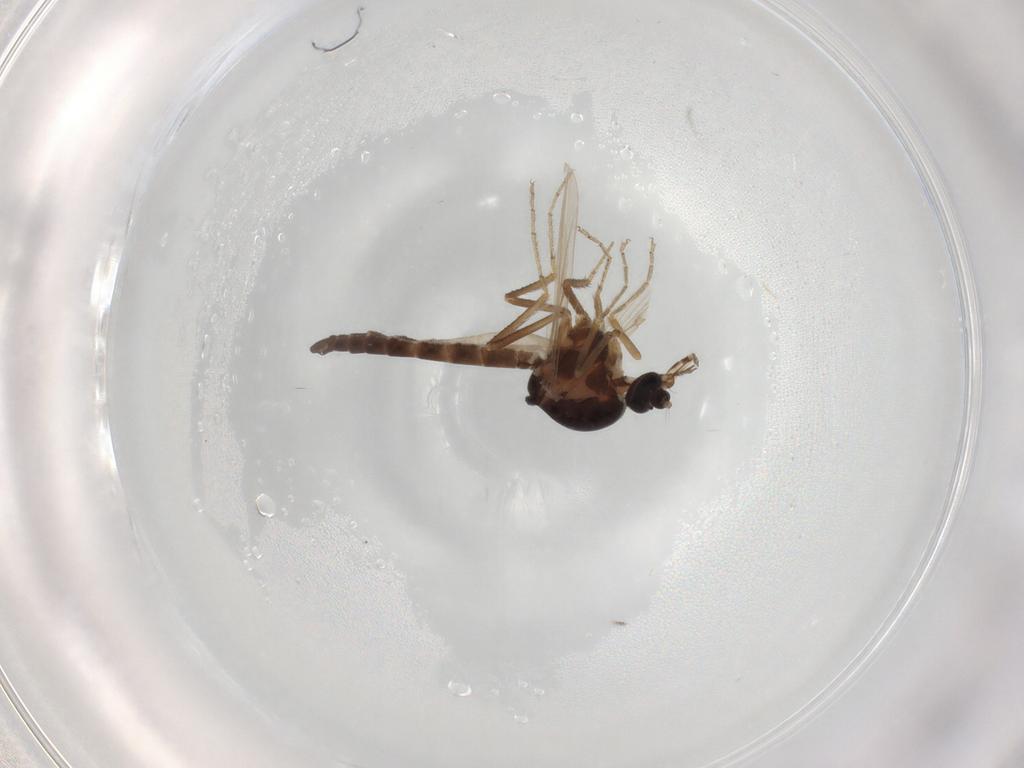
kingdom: Animalia
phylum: Arthropoda
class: Insecta
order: Diptera
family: Ceratopogonidae
